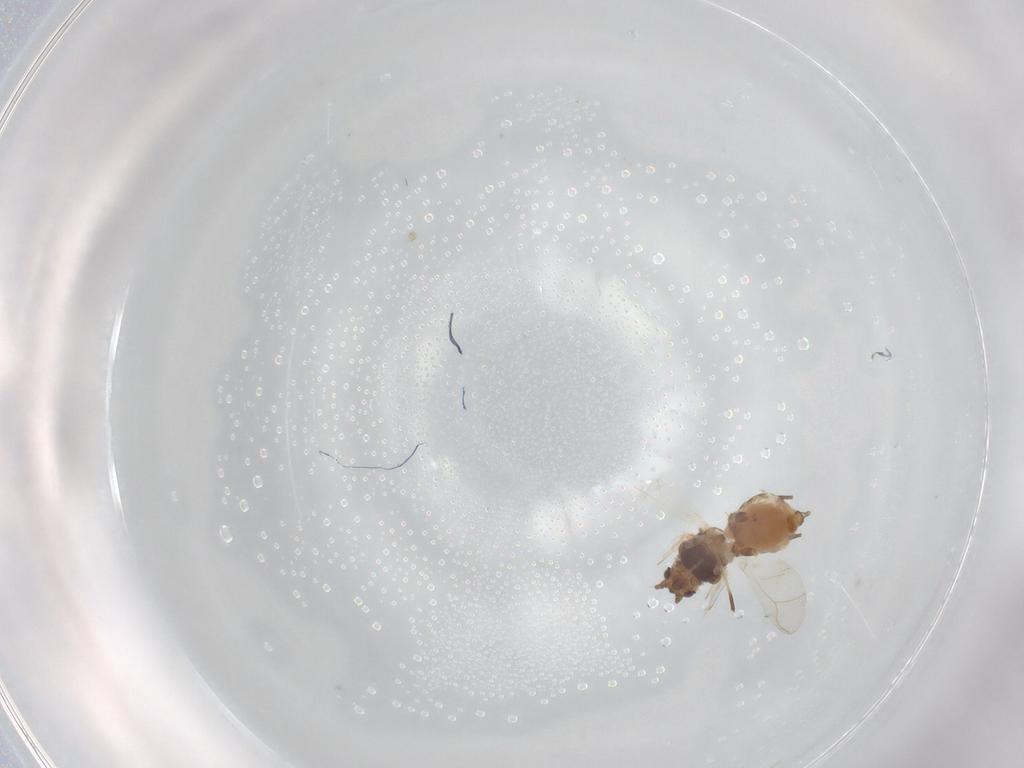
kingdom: Animalia
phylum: Arthropoda
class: Insecta
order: Hemiptera
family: Aphididae
